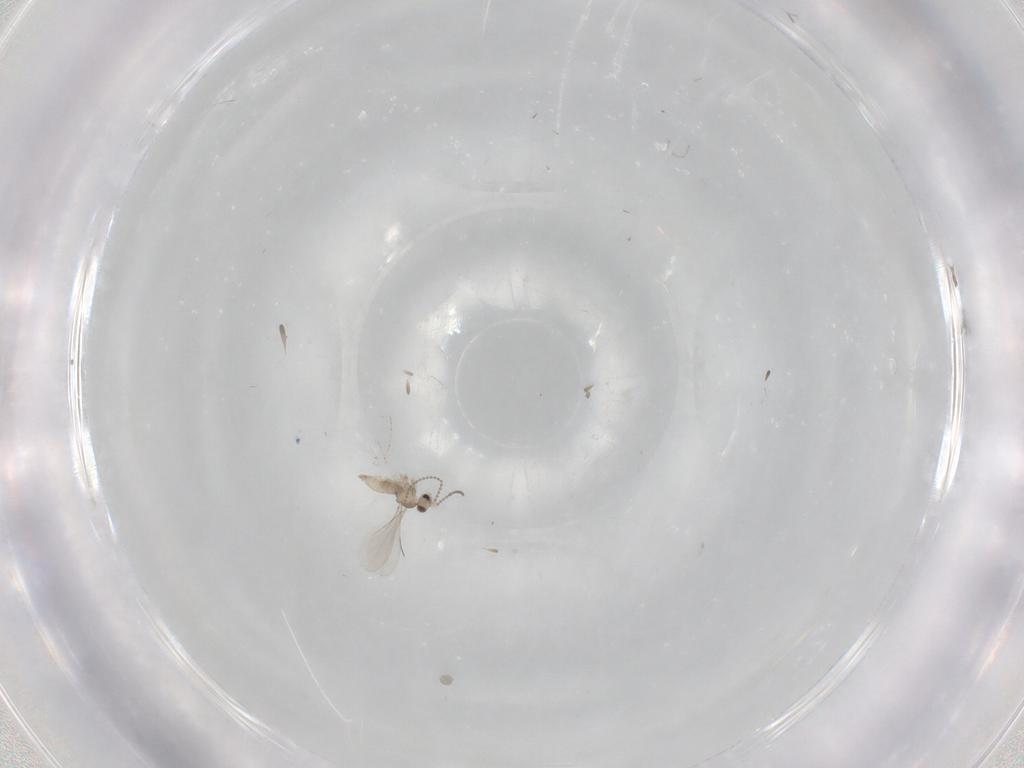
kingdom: Animalia
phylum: Arthropoda
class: Insecta
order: Diptera
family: Cecidomyiidae
